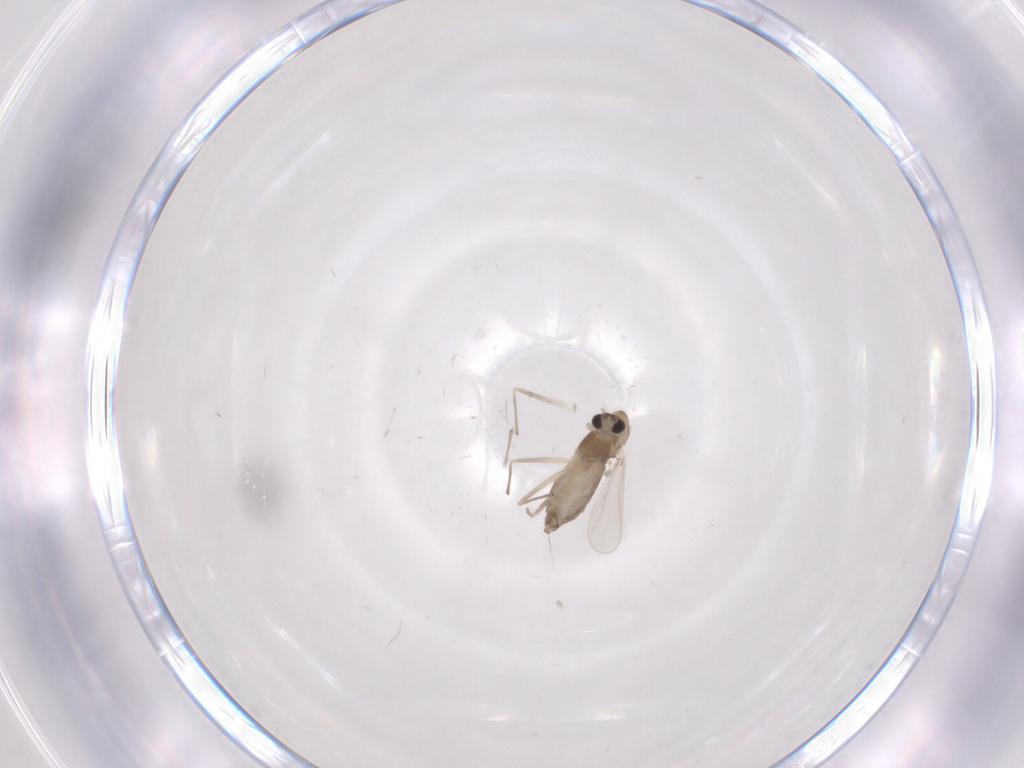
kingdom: Animalia
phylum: Arthropoda
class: Insecta
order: Diptera
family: Chironomidae
